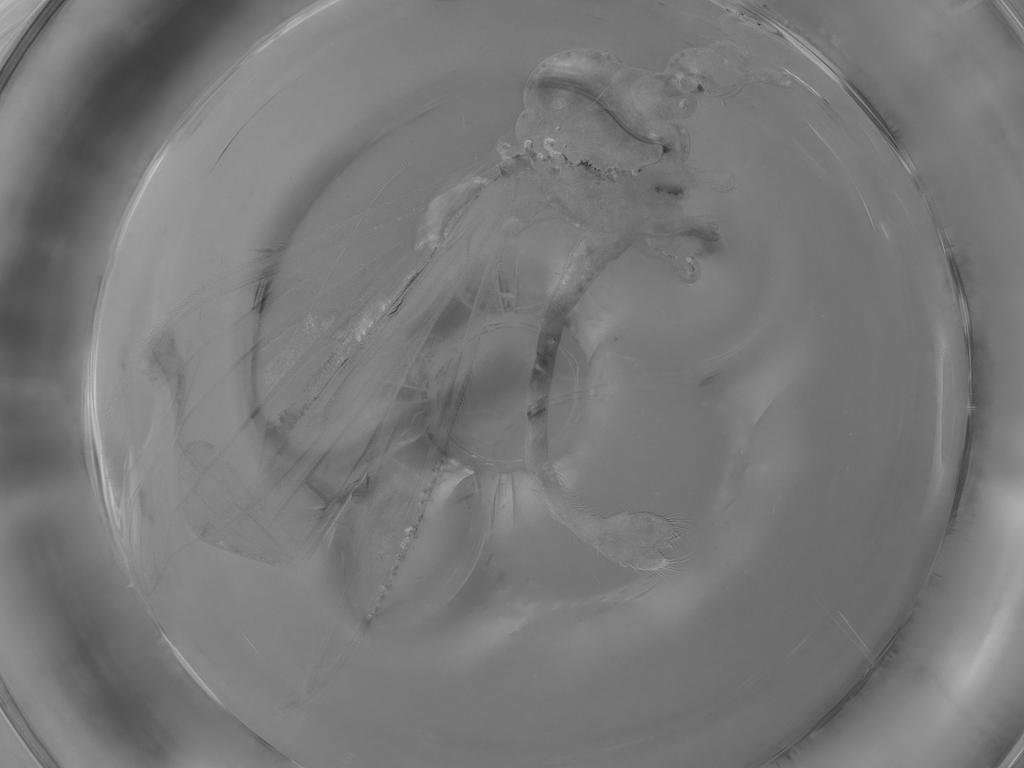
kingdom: Animalia
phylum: Arthropoda
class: Insecta
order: Diptera
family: Limoniidae
